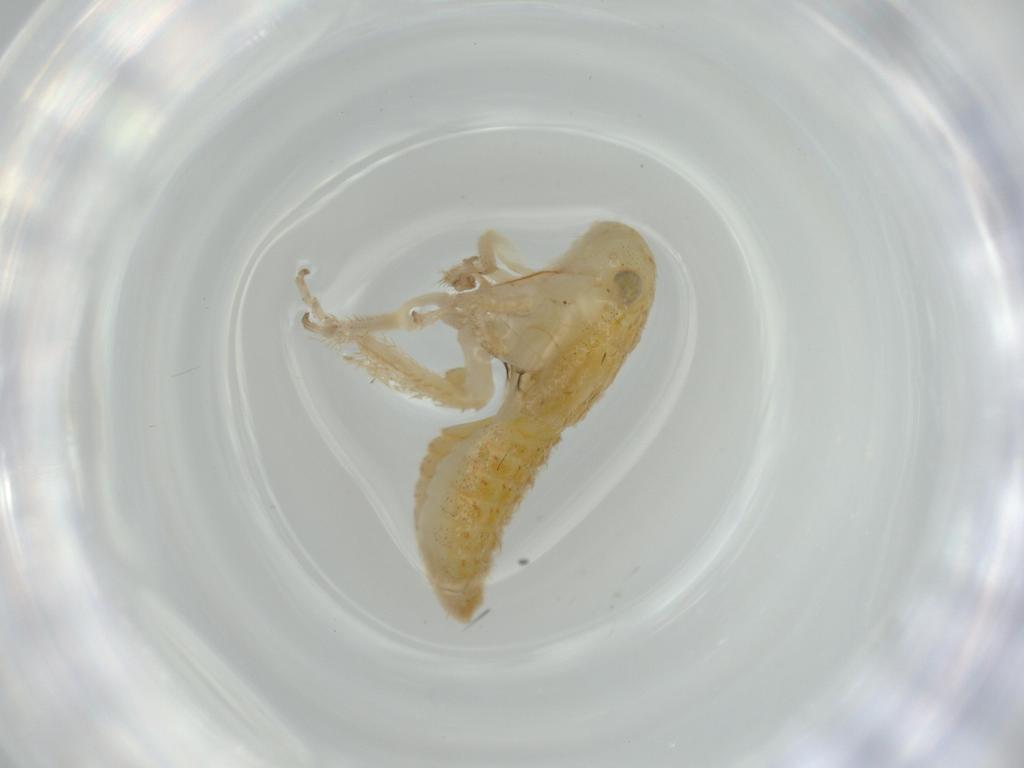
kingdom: Animalia
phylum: Arthropoda
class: Insecta
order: Hemiptera
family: Cicadellidae
